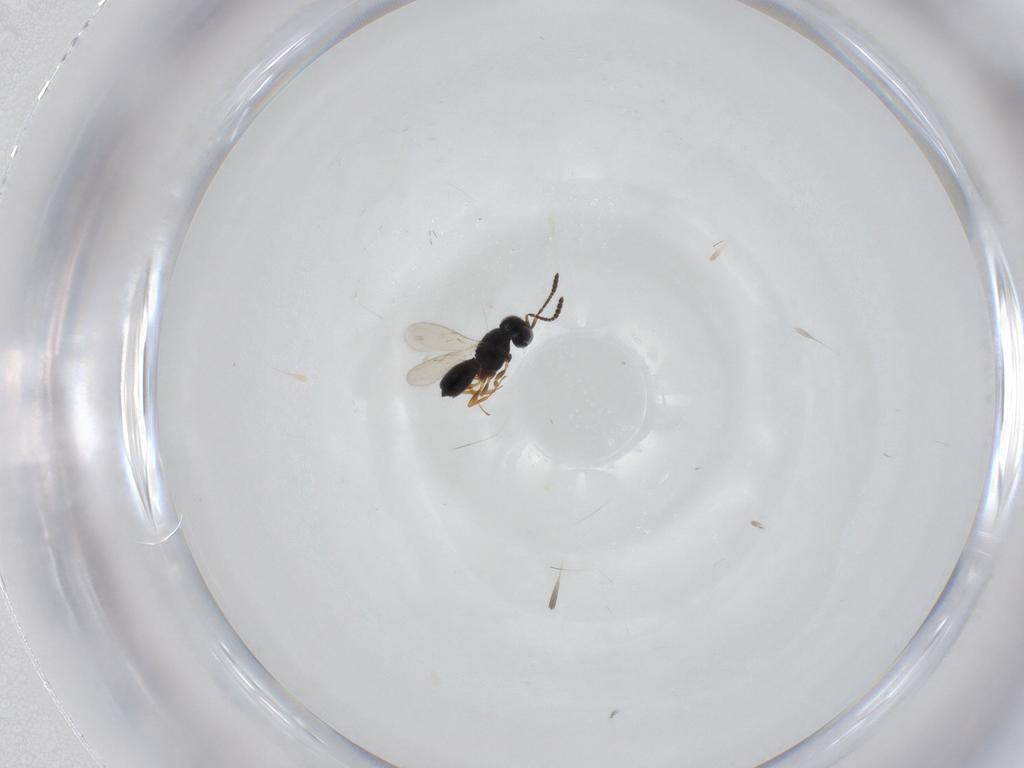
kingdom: Animalia
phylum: Arthropoda
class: Insecta
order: Hymenoptera
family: Scelionidae
